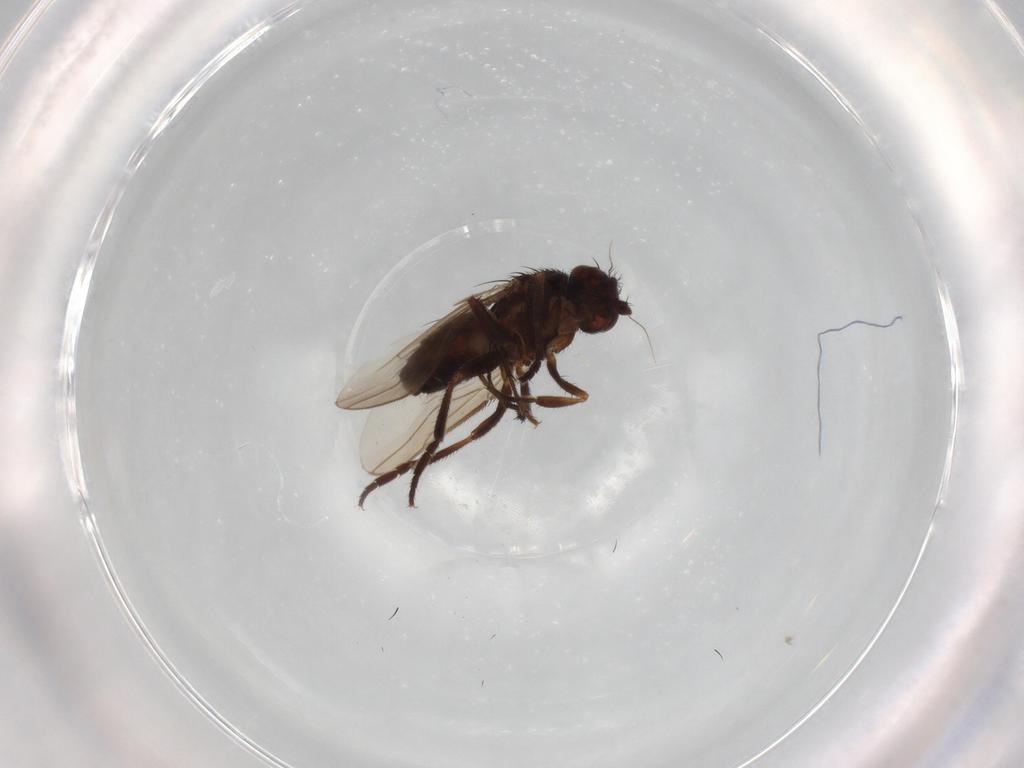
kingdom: Animalia
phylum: Arthropoda
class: Insecta
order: Diptera
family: Sphaeroceridae
